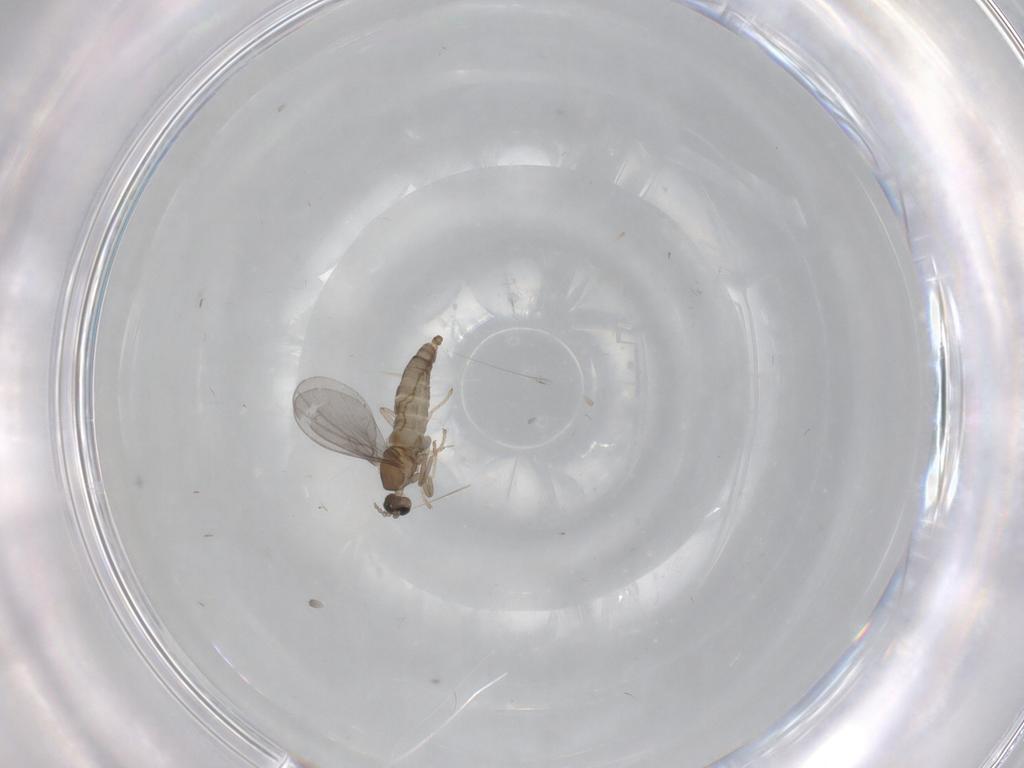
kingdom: Animalia
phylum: Arthropoda
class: Insecta
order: Diptera
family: Cecidomyiidae
